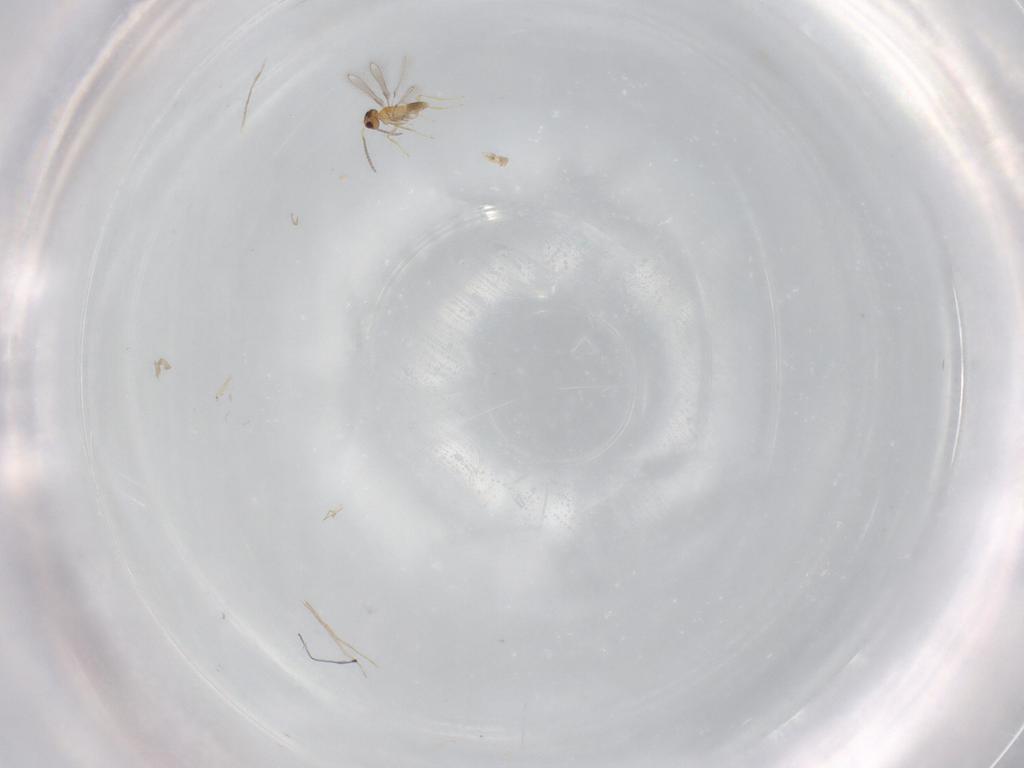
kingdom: Animalia
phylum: Arthropoda
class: Insecta
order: Hymenoptera
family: Mymaridae
